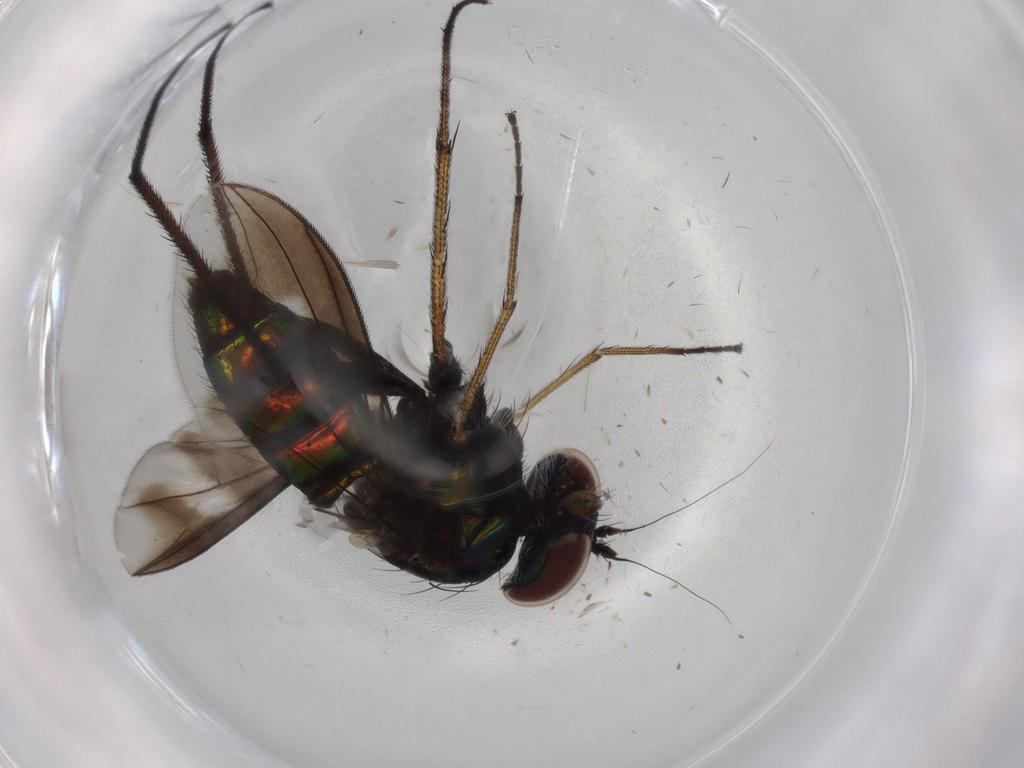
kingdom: Animalia
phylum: Arthropoda
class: Insecta
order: Diptera
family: Dolichopodidae
